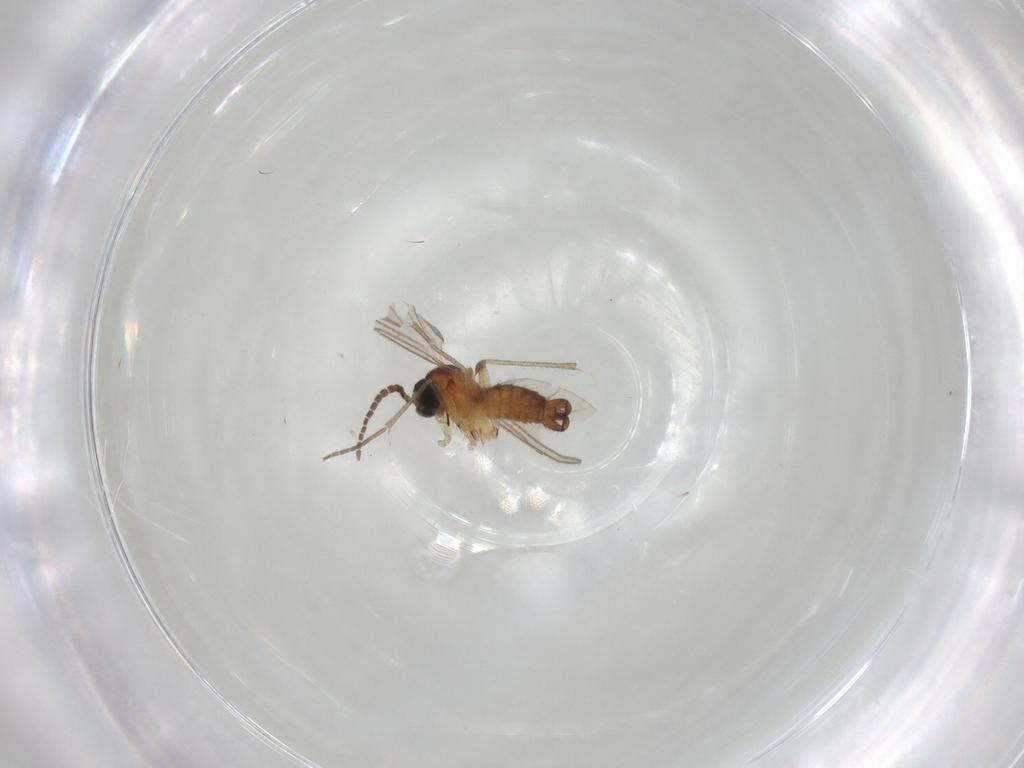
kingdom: Animalia
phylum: Arthropoda
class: Insecta
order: Diptera
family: Sciaridae
